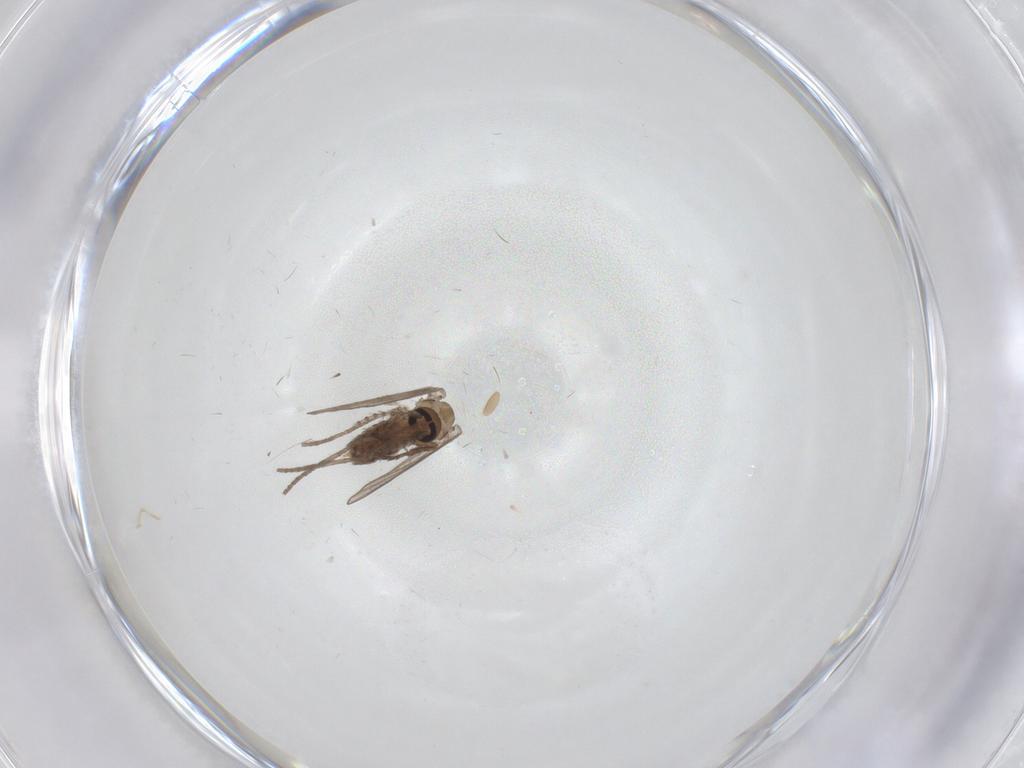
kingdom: Animalia
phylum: Arthropoda
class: Insecta
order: Diptera
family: Psychodidae
